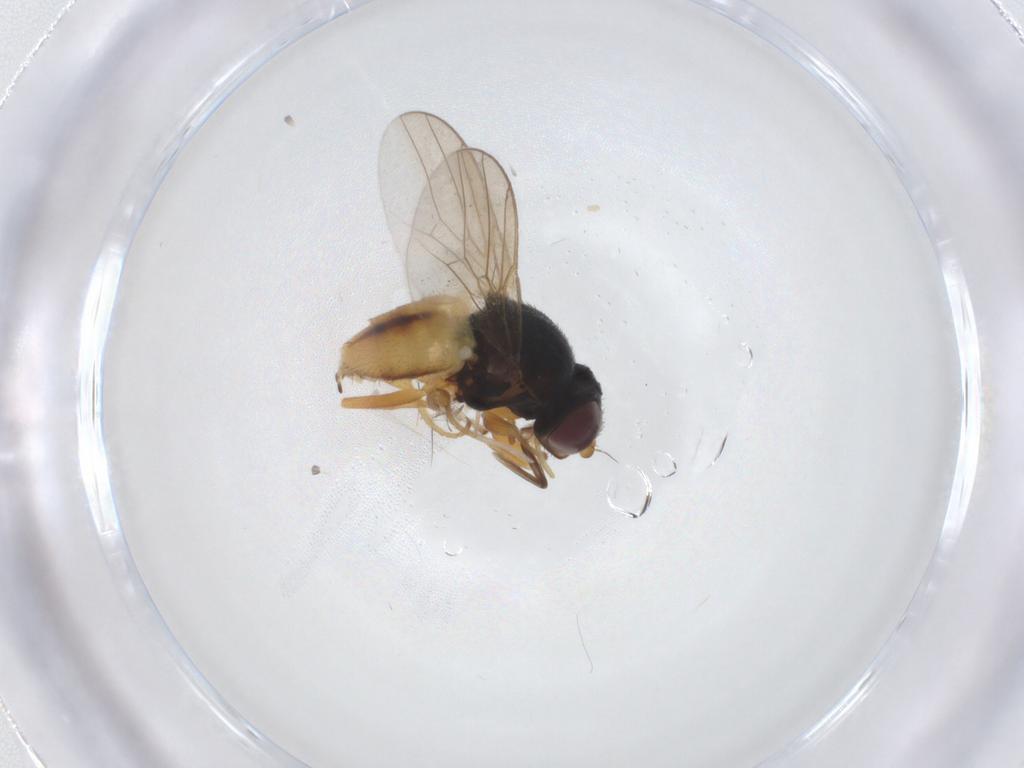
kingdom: Animalia
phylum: Arthropoda
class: Insecta
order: Diptera
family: Chloropidae
